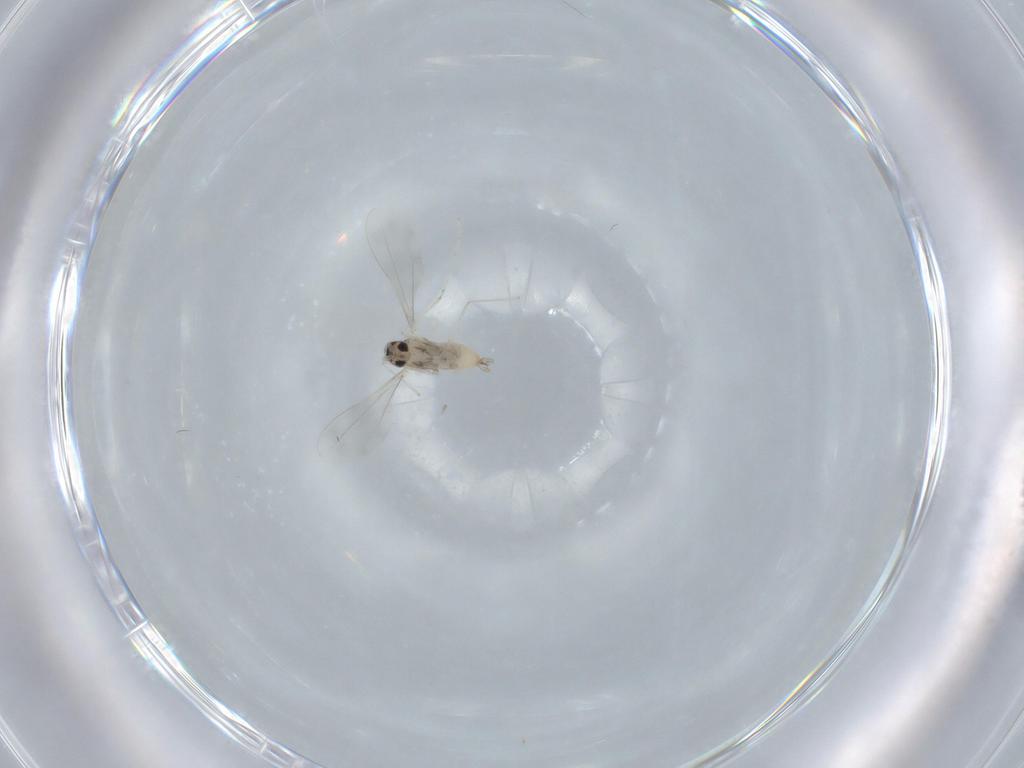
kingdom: Animalia
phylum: Arthropoda
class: Insecta
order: Diptera
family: Cecidomyiidae
